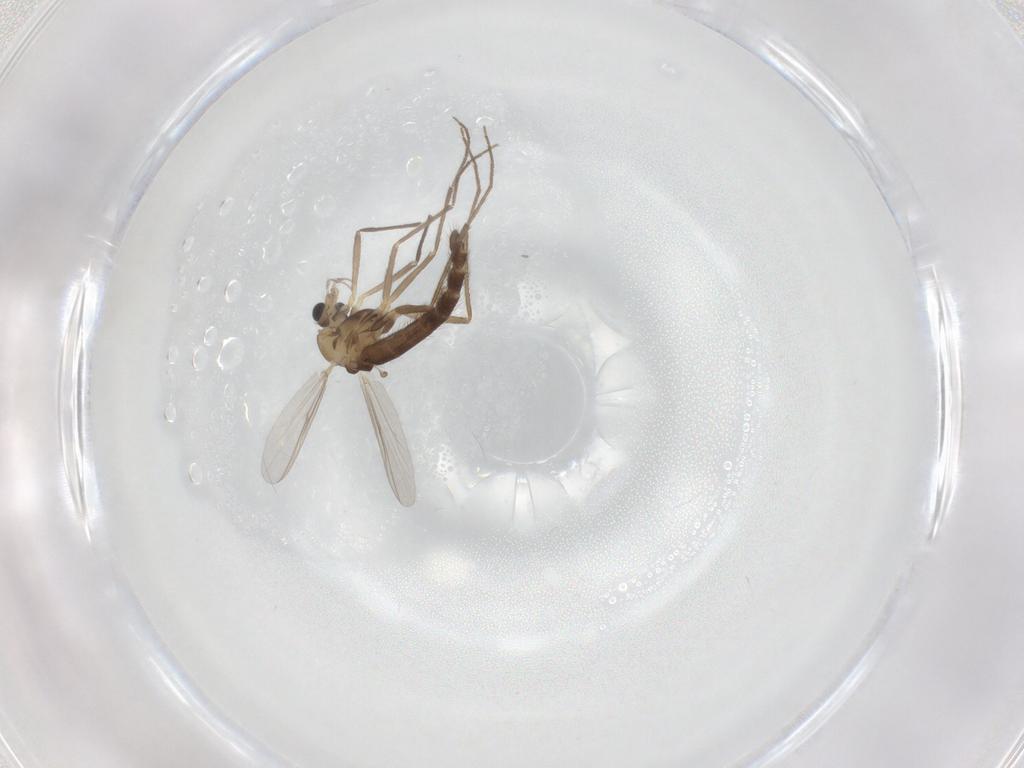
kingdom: Animalia
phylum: Arthropoda
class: Insecta
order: Diptera
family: Chironomidae
